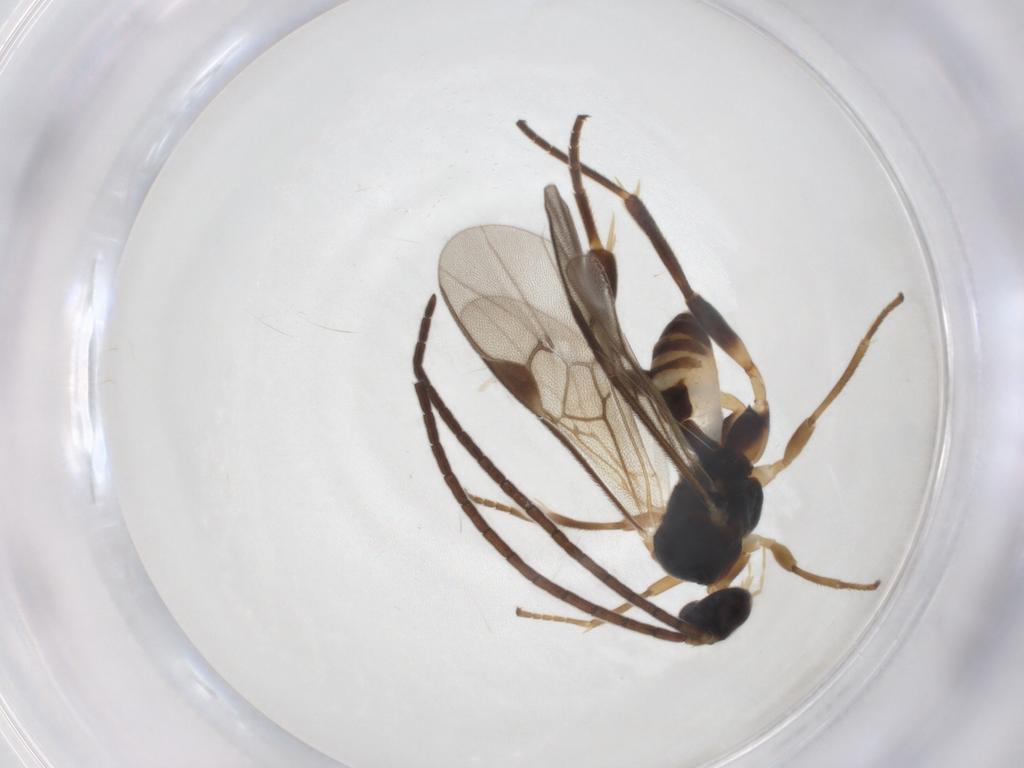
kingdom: Animalia
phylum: Arthropoda
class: Insecta
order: Hymenoptera
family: Braconidae
